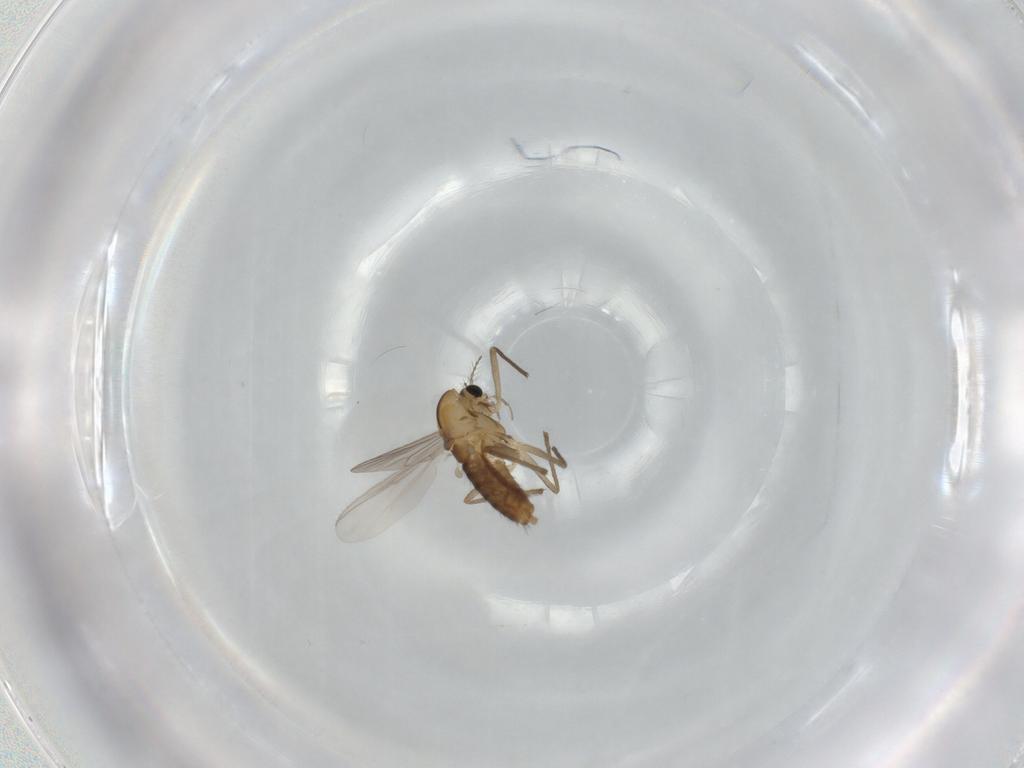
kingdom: Animalia
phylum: Arthropoda
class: Insecta
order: Diptera
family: Chironomidae
